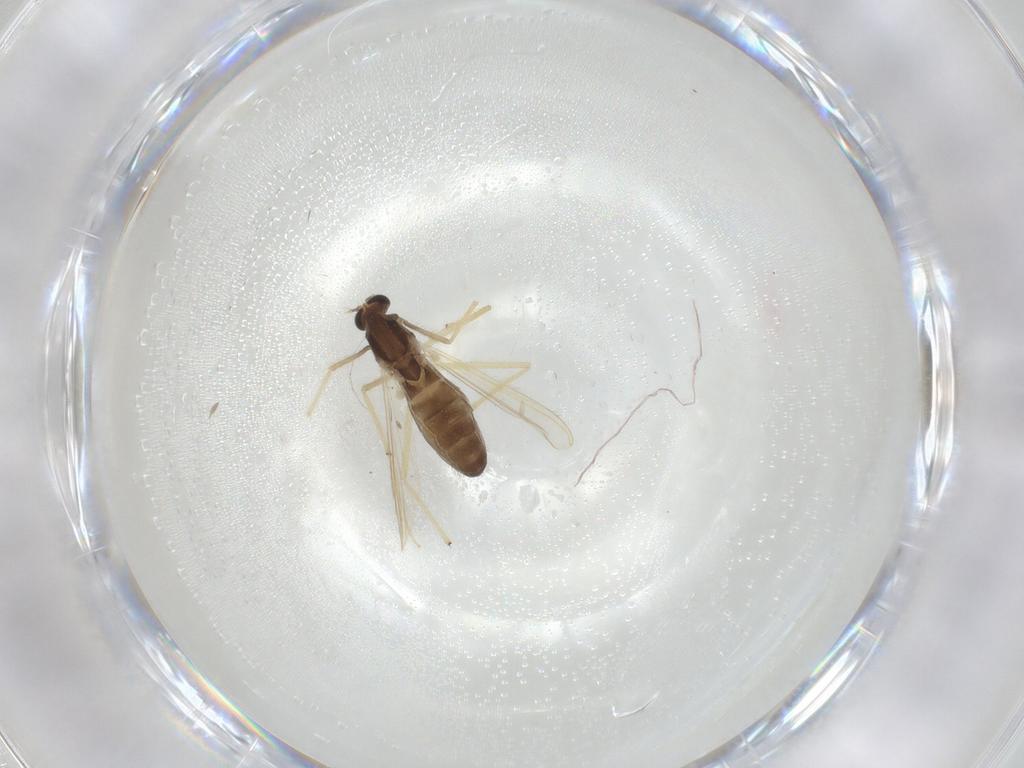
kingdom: Animalia
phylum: Arthropoda
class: Insecta
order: Diptera
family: Chironomidae
